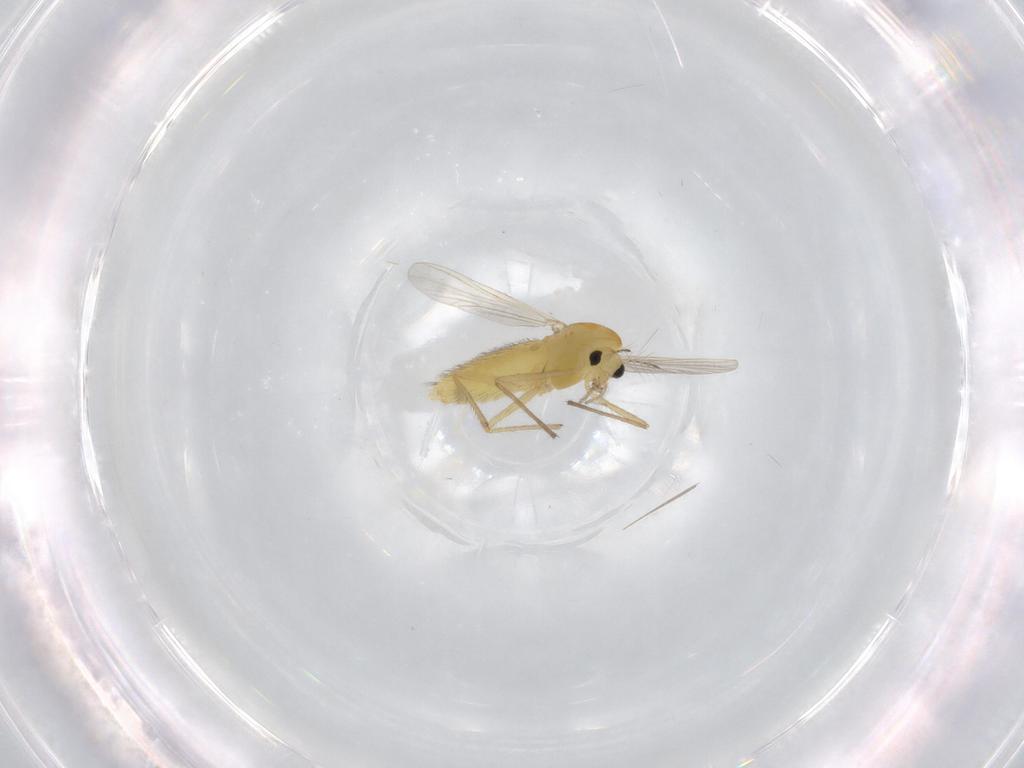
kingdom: Animalia
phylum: Arthropoda
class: Insecta
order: Diptera
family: Chironomidae
